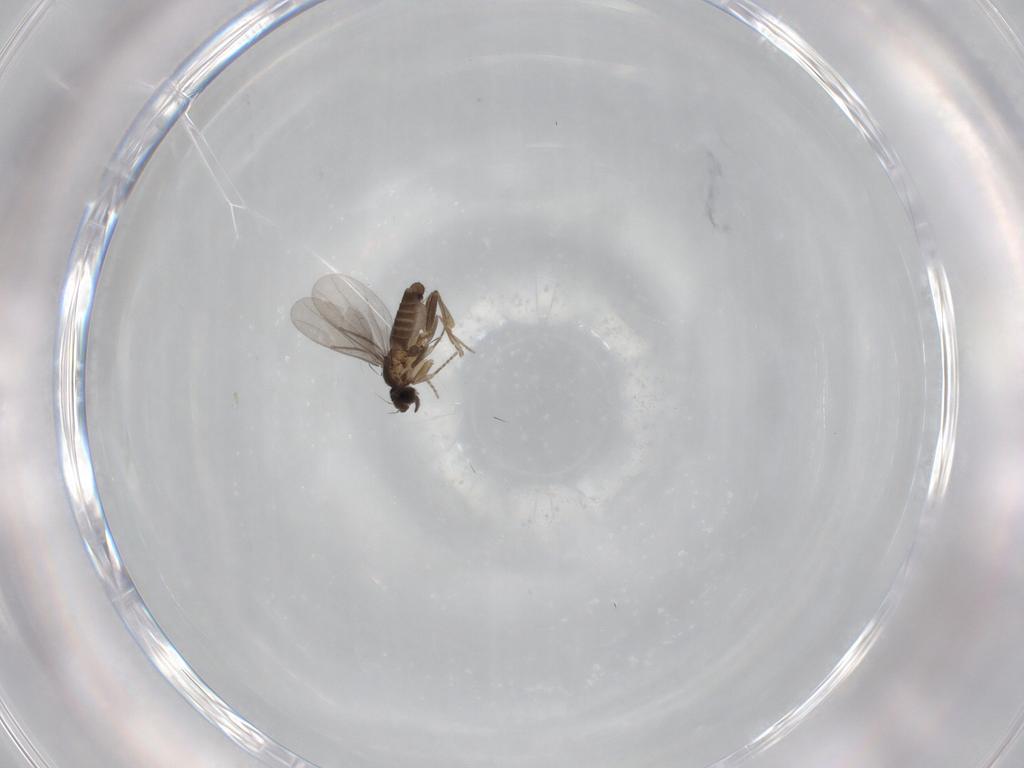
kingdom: Animalia
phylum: Arthropoda
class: Insecta
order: Diptera
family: Phoridae
